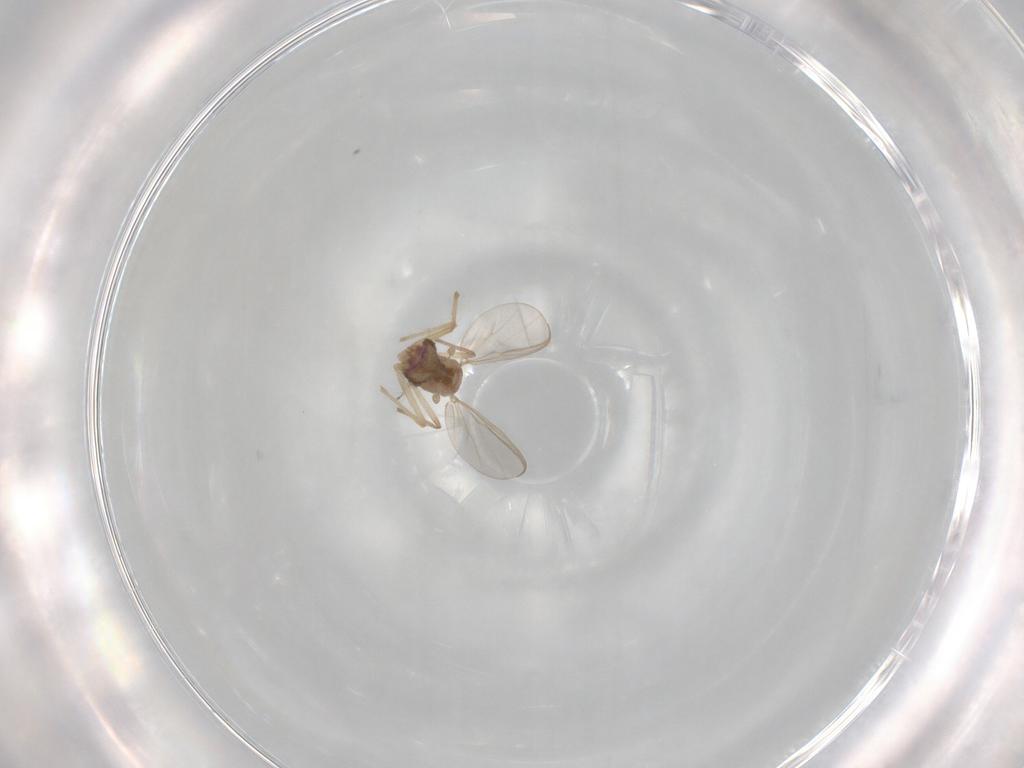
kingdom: Animalia
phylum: Arthropoda
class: Insecta
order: Diptera
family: Chironomidae
